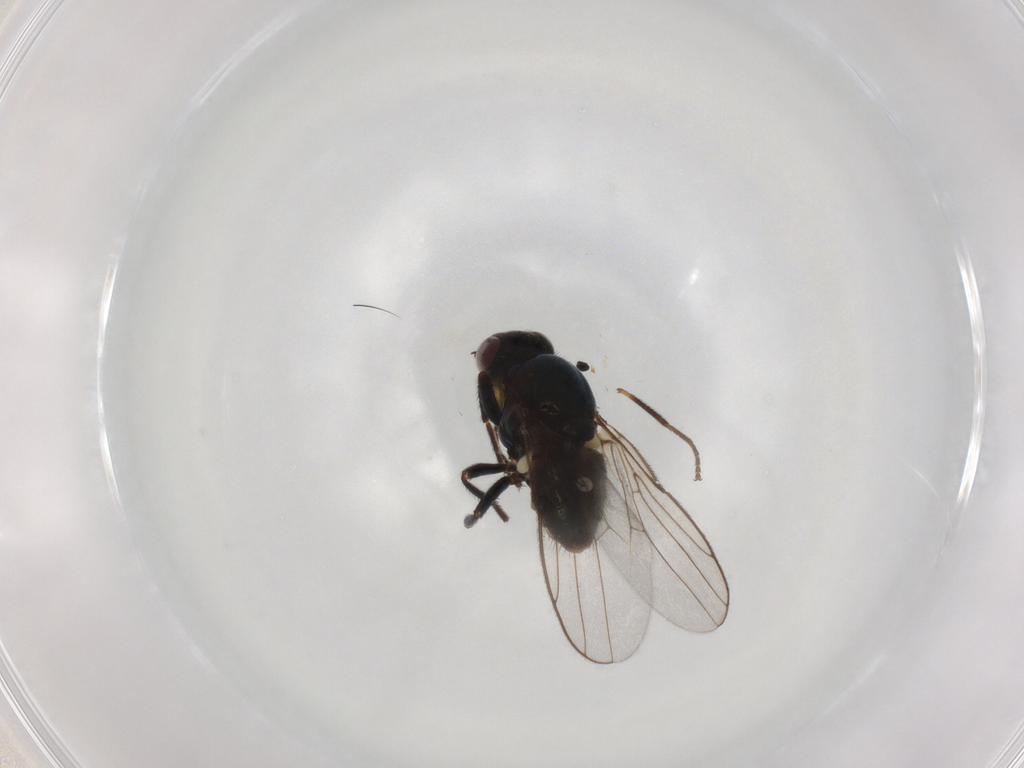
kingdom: Animalia
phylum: Arthropoda
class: Insecta
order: Diptera
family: Chloropidae
